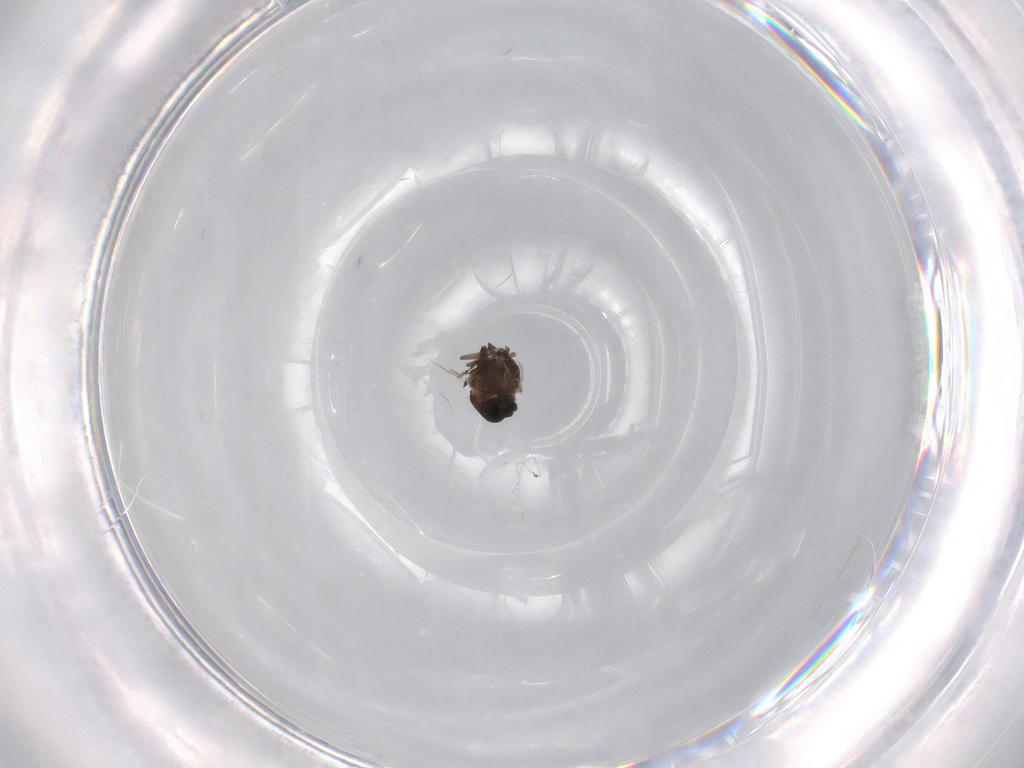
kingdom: Animalia
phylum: Arthropoda
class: Insecta
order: Diptera
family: Chironomidae
